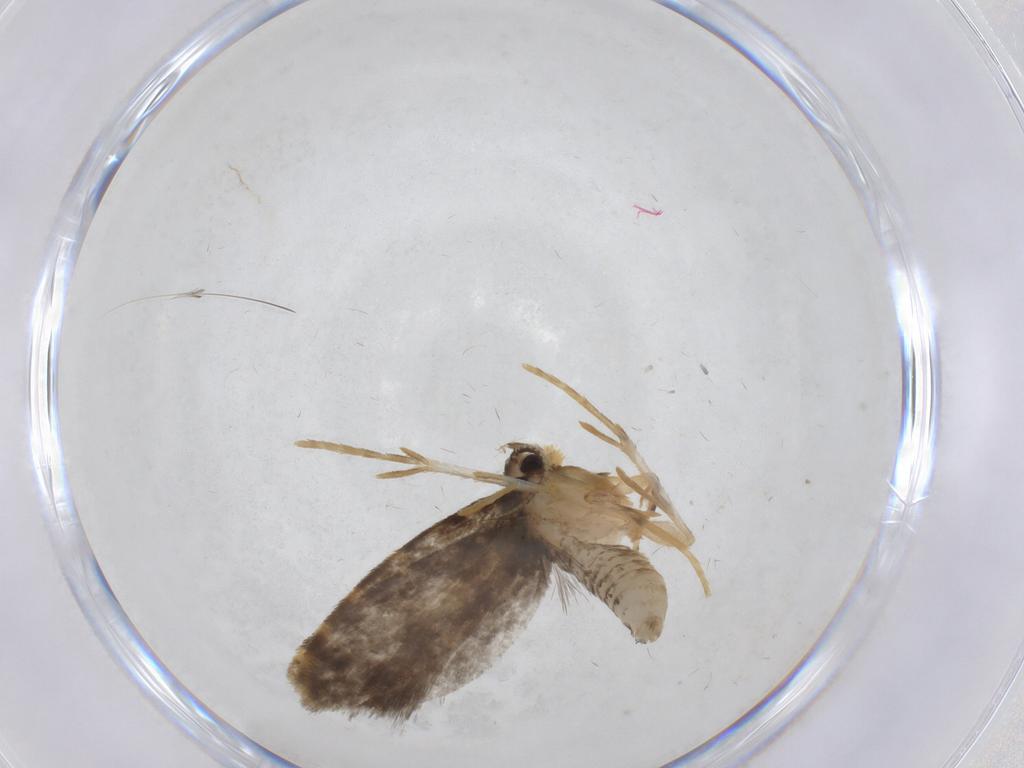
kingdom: Animalia
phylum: Arthropoda
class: Insecta
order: Lepidoptera
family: Psychidae
